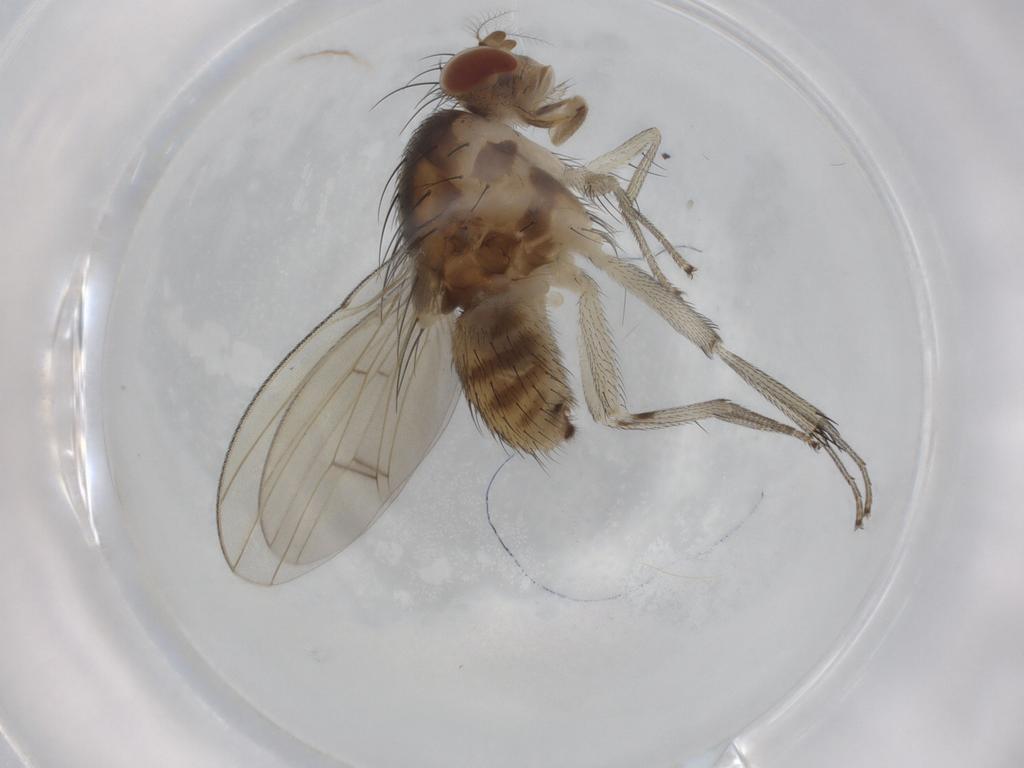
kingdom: Animalia
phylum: Arthropoda
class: Insecta
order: Diptera
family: Lauxaniidae
